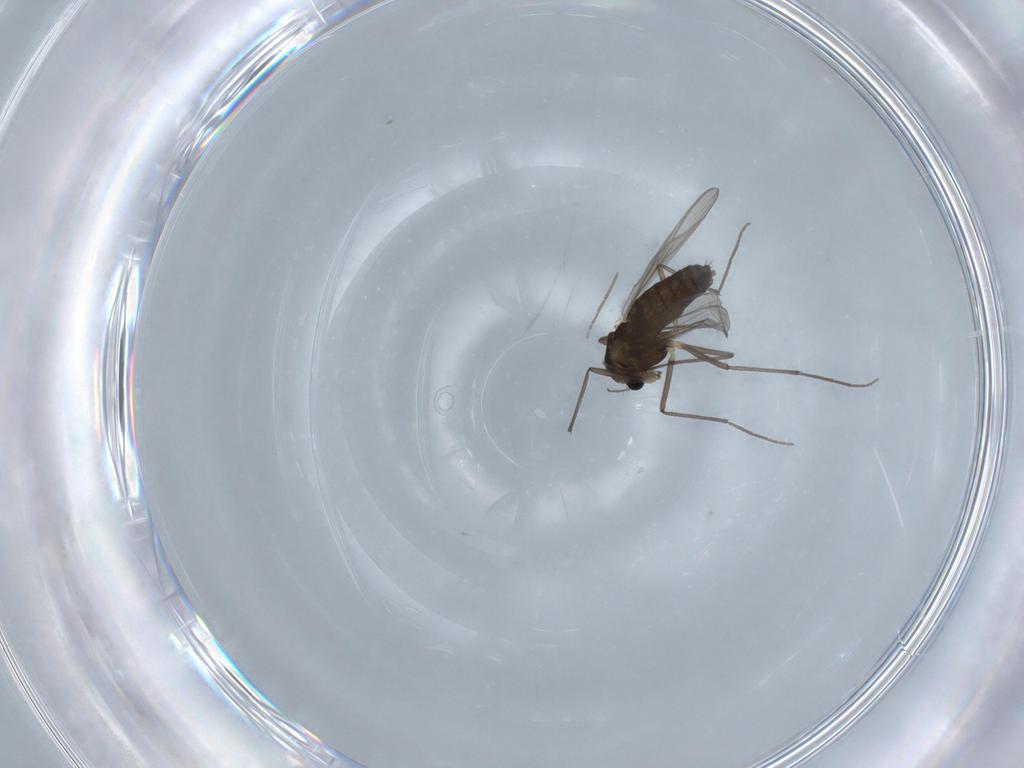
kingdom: Animalia
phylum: Arthropoda
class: Insecta
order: Diptera
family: Chironomidae
